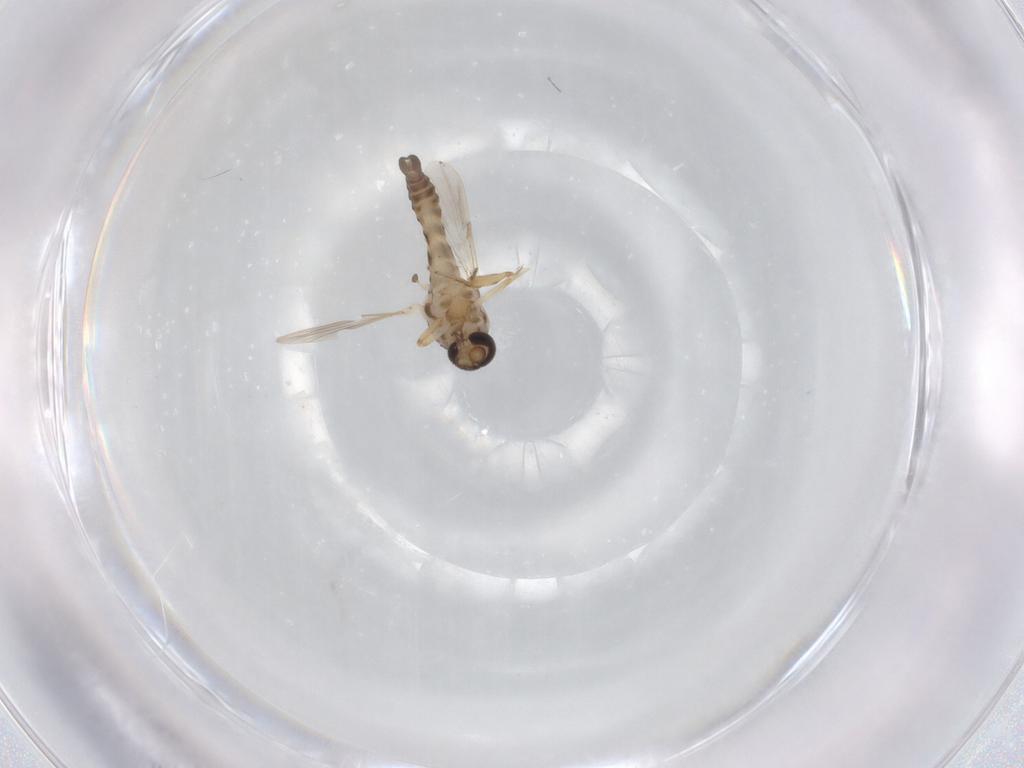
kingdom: Animalia
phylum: Arthropoda
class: Insecta
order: Diptera
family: Ceratopogonidae
